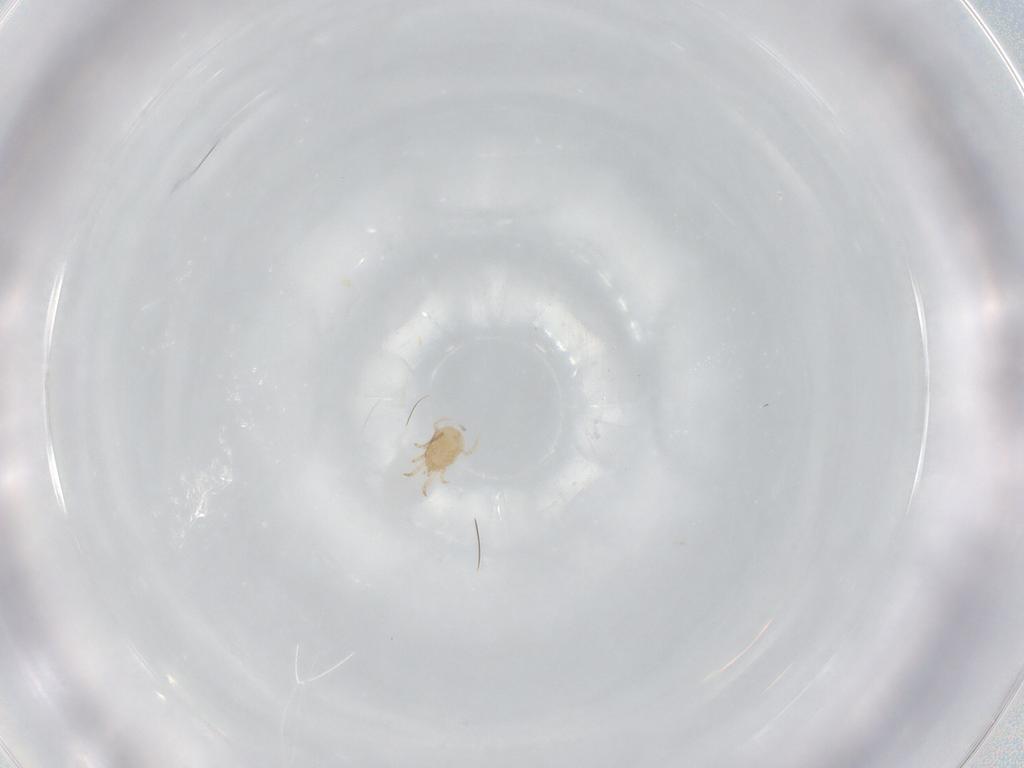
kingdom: Animalia
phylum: Arthropoda
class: Arachnida
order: Mesostigmata
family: Phytoseiidae
